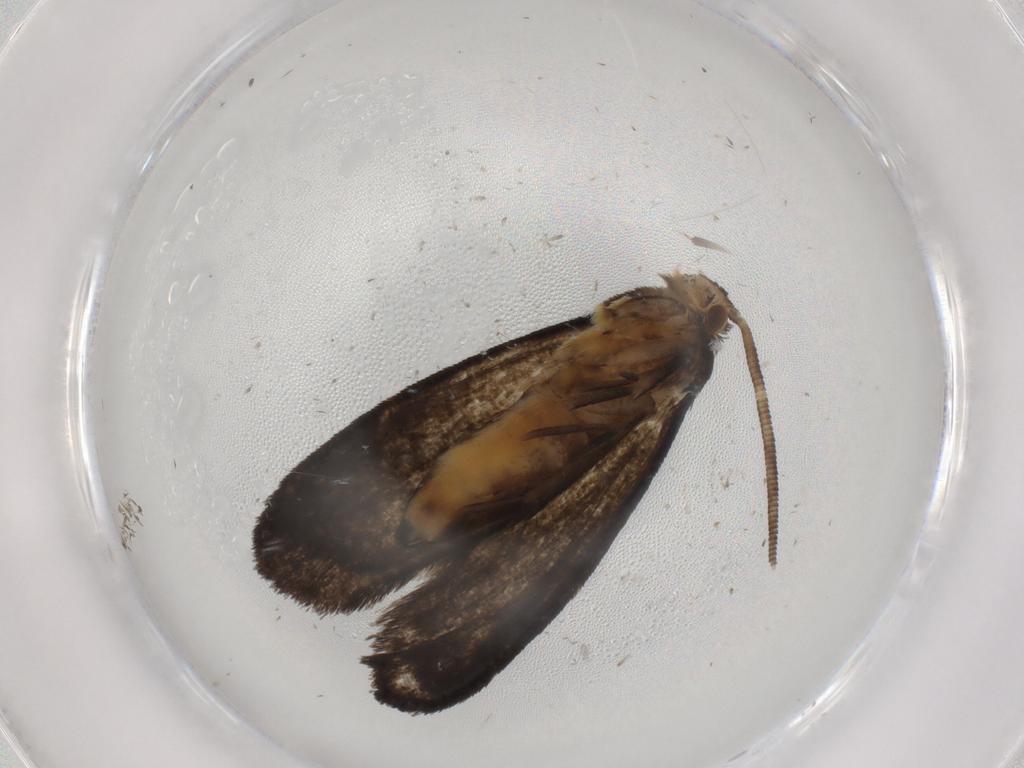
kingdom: Animalia
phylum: Arthropoda
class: Insecta
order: Lepidoptera
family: Dryadaulidae
